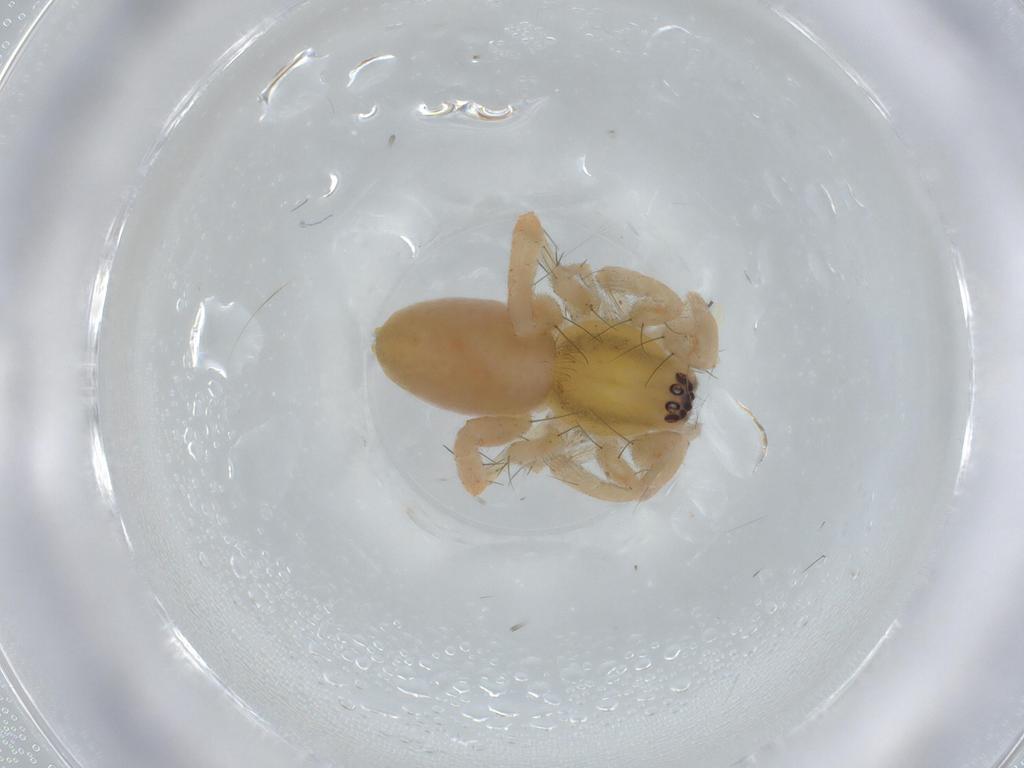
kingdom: Animalia
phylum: Arthropoda
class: Arachnida
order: Araneae
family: Anyphaenidae
